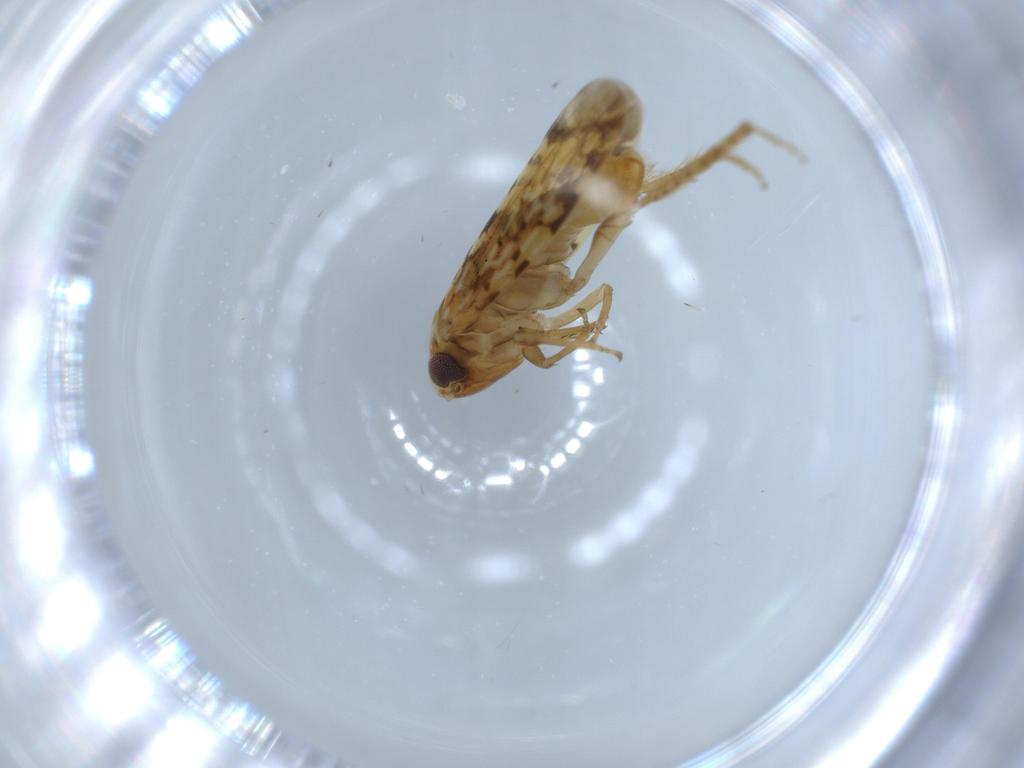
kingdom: Animalia
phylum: Arthropoda
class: Insecta
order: Hemiptera
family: Cicadellidae
